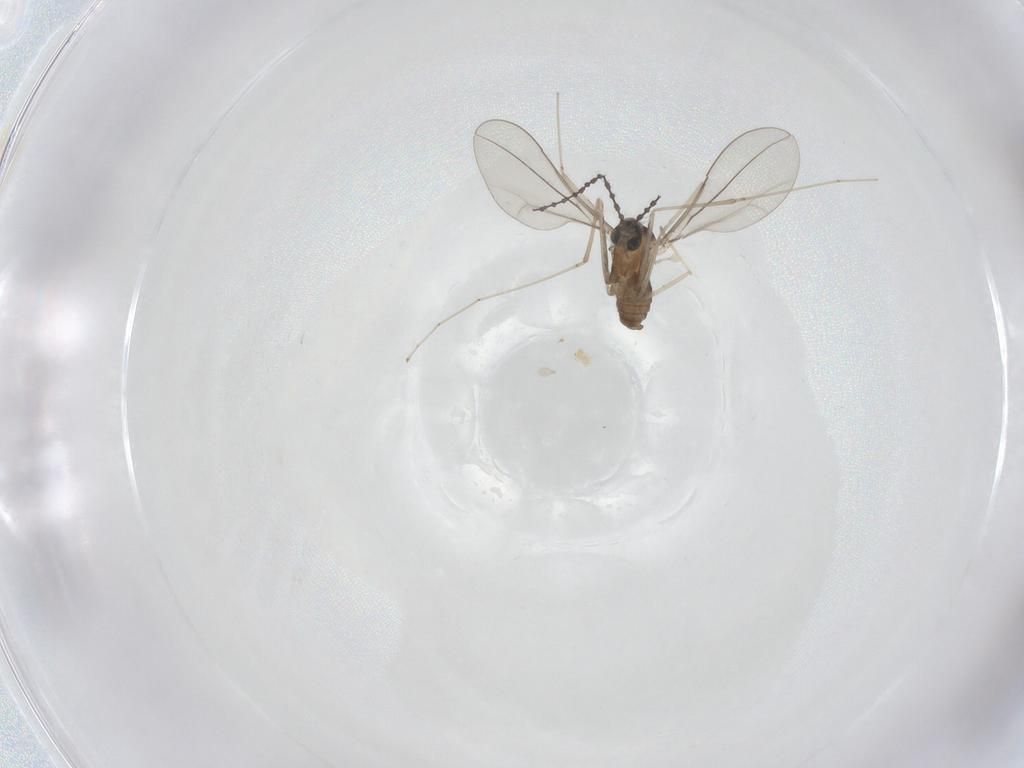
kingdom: Animalia
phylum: Arthropoda
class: Insecta
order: Diptera
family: Cecidomyiidae
